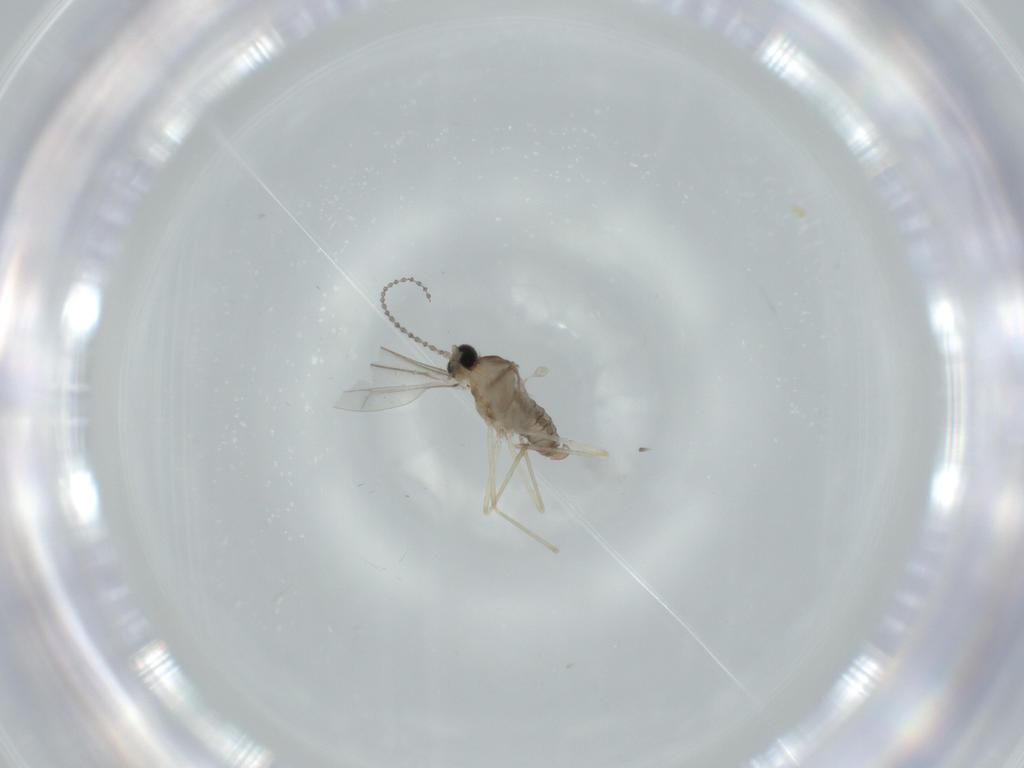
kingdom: Animalia
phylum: Arthropoda
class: Insecta
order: Diptera
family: Cecidomyiidae
